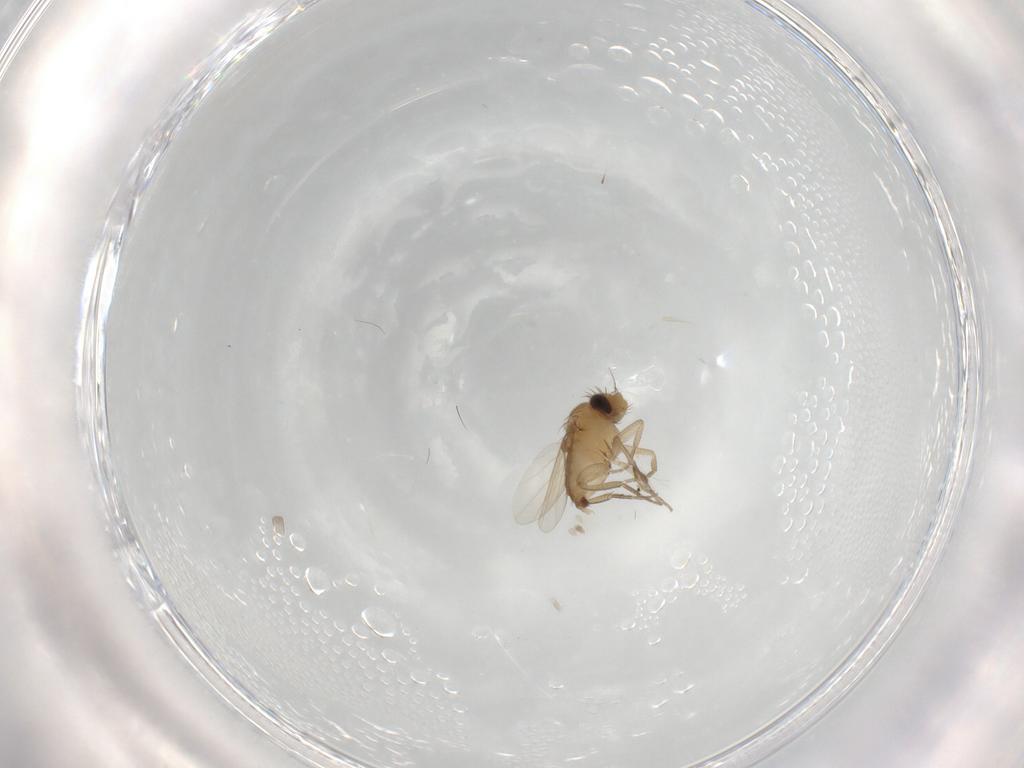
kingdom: Animalia
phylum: Arthropoda
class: Insecta
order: Diptera
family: Phoridae
